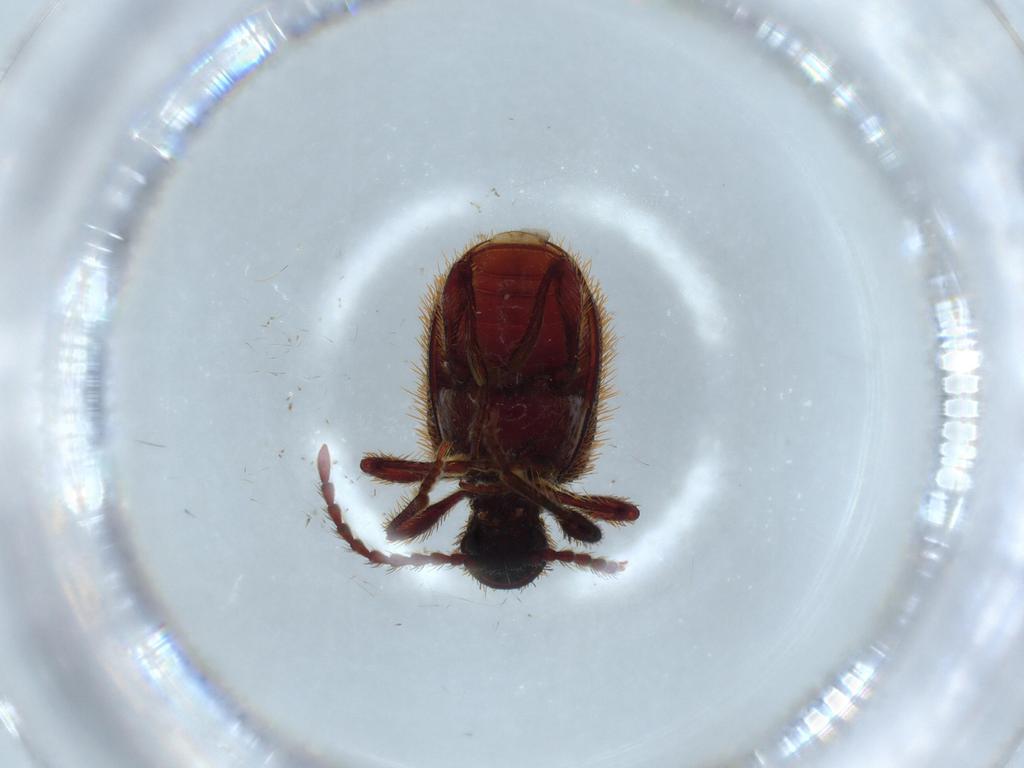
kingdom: Animalia
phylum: Arthropoda
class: Insecta
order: Coleoptera
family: Ptinidae
